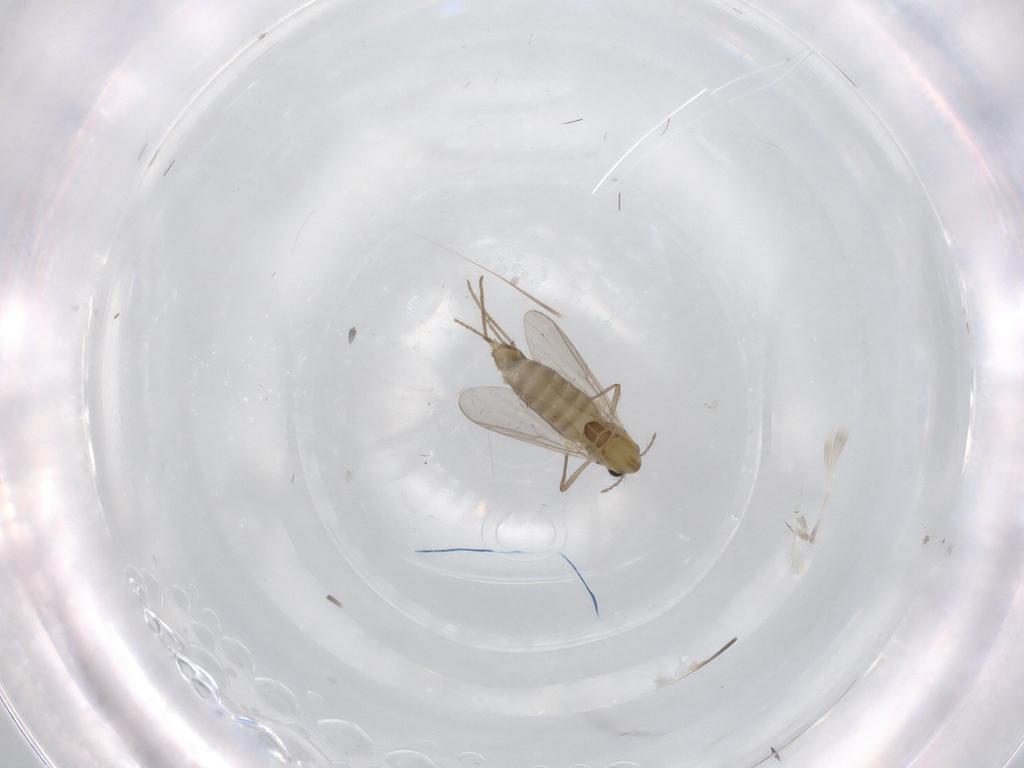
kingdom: Animalia
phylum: Arthropoda
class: Insecta
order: Diptera
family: Chironomidae
